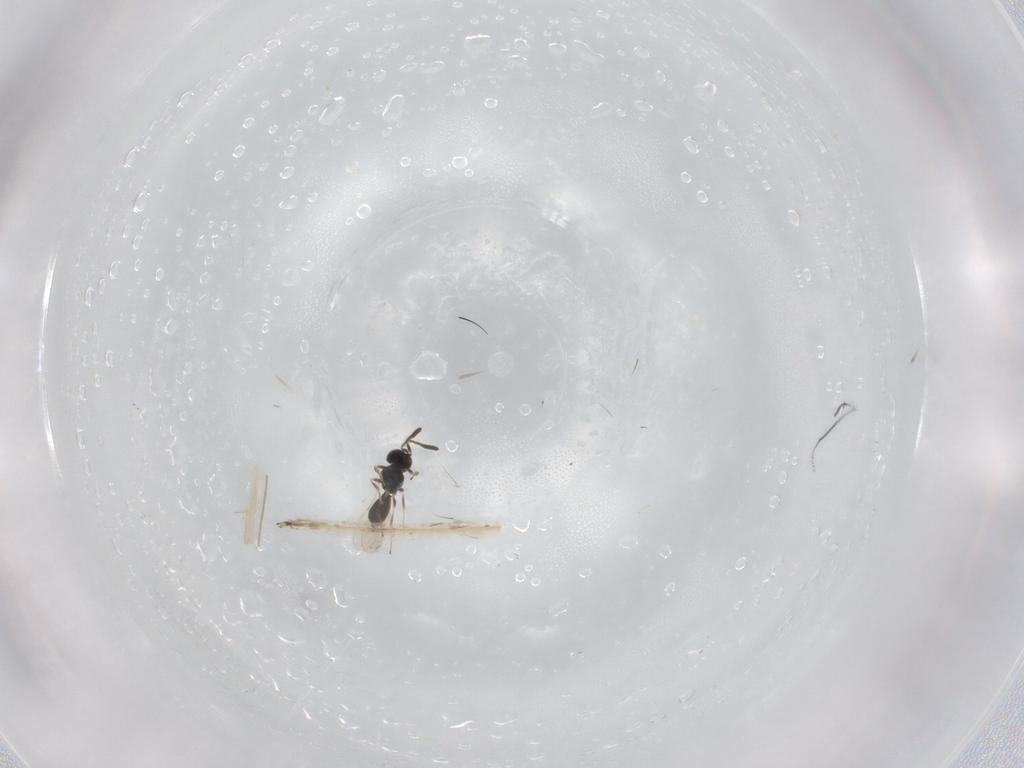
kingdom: Animalia
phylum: Arthropoda
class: Insecta
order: Hymenoptera
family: Scelionidae
